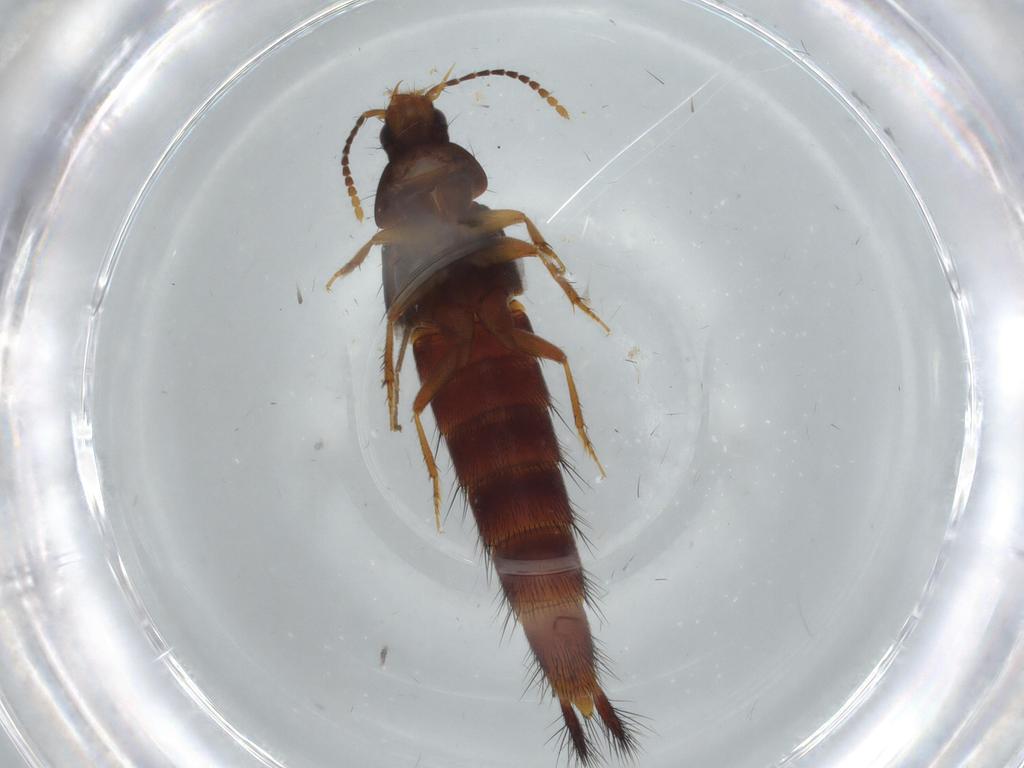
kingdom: Animalia
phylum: Arthropoda
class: Insecta
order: Coleoptera
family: Staphylinidae
